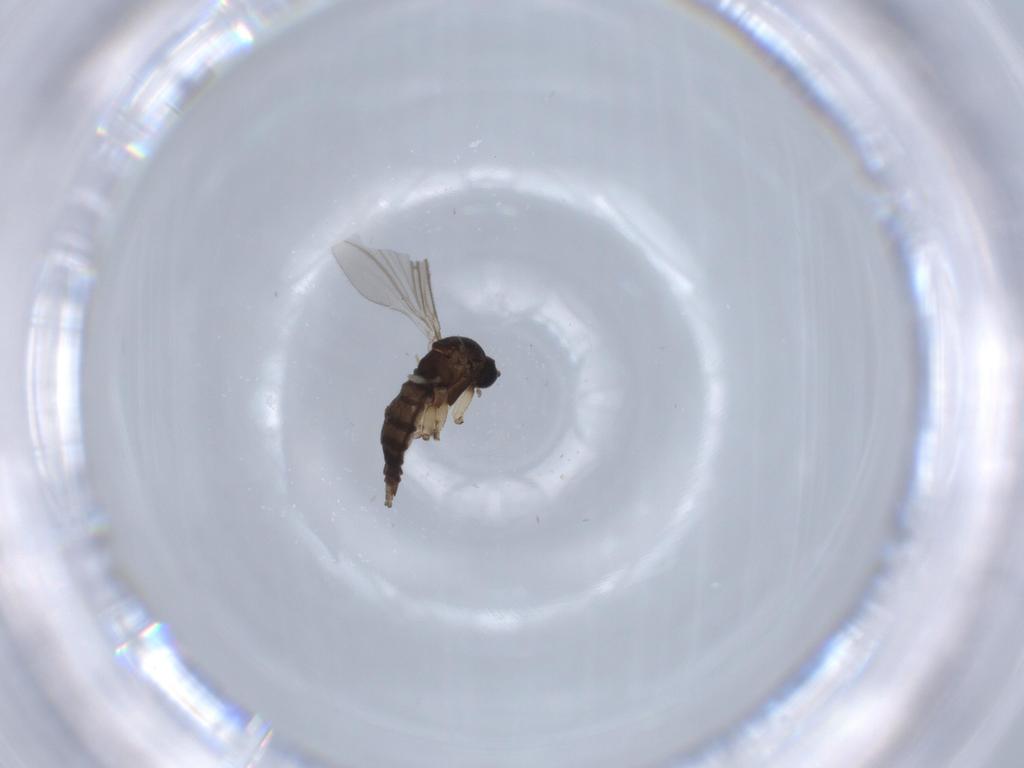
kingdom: Animalia
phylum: Arthropoda
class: Insecta
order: Diptera
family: Sciaridae
